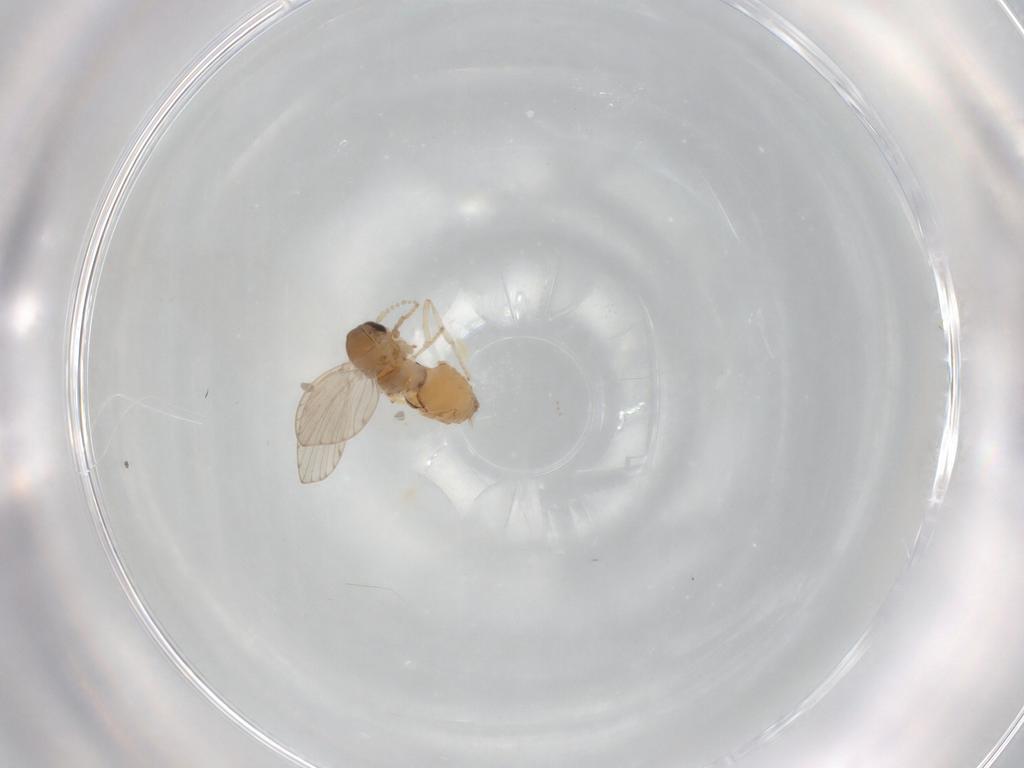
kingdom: Animalia
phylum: Arthropoda
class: Insecta
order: Diptera
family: Psychodidae
